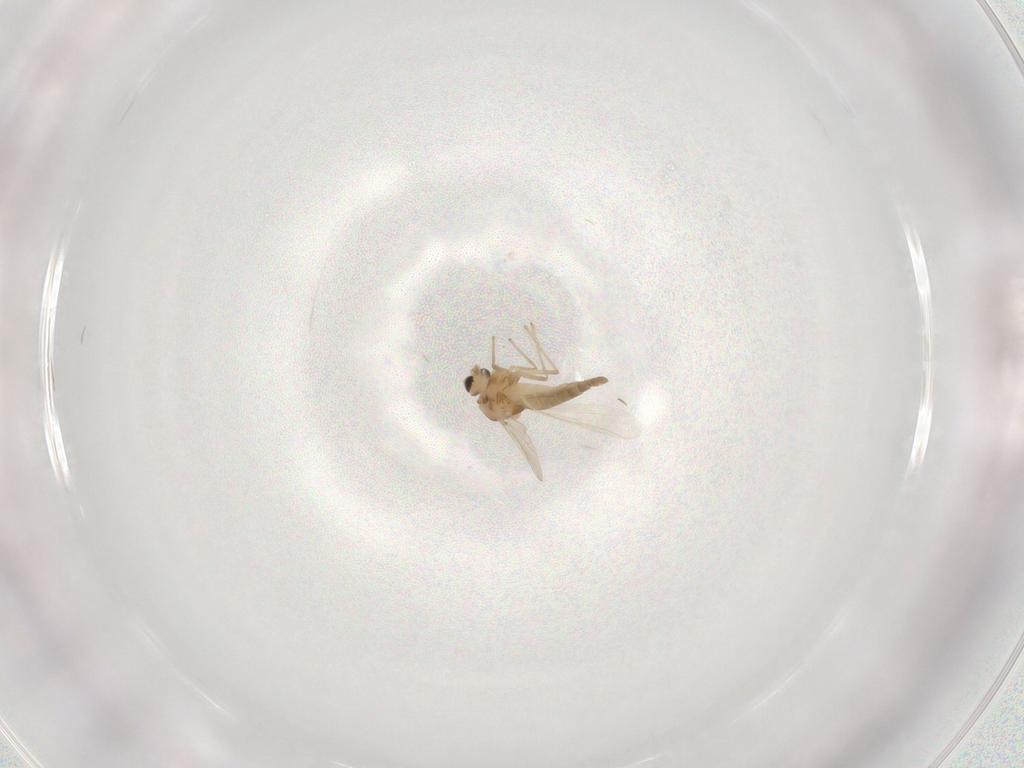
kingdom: Animalia
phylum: Arthropoda
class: Insecta
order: Diptera
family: Chironomidae
